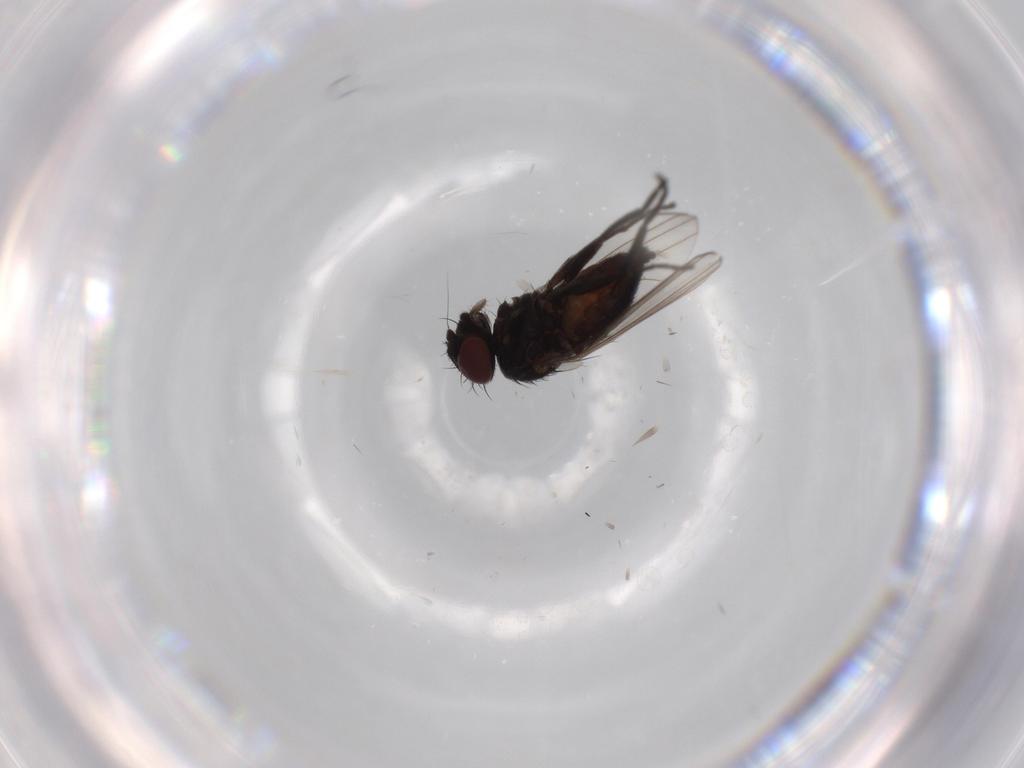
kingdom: Animalia
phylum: Arthropoda
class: Insecta
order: Diptera
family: Milichiidae
